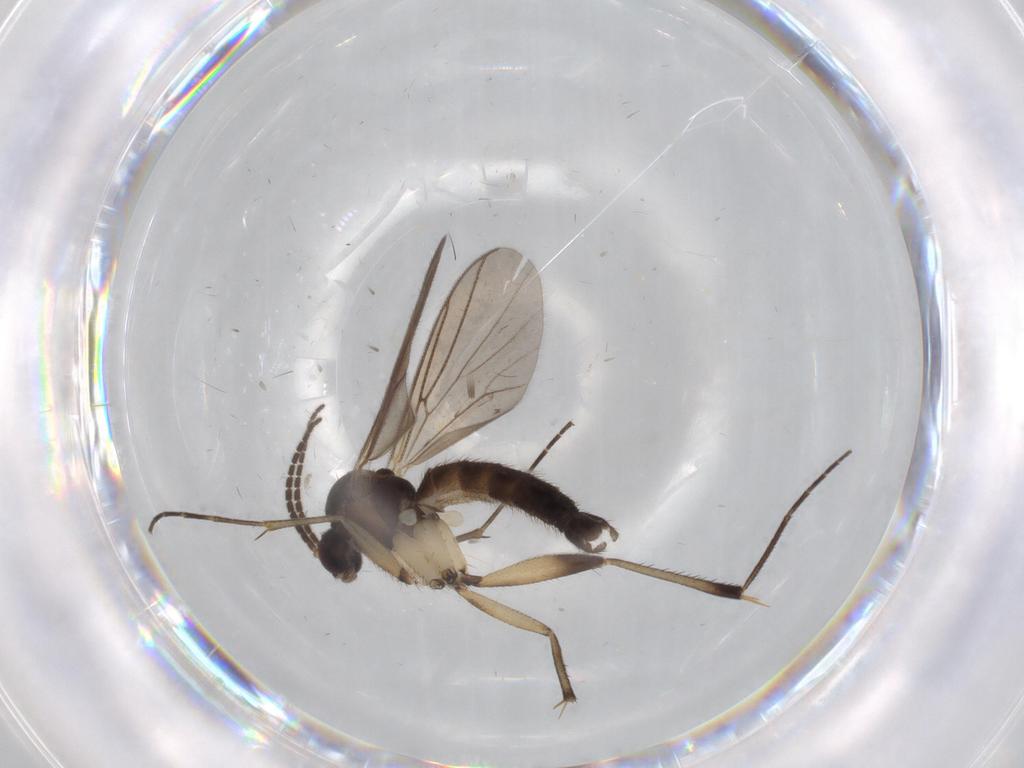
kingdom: Animalia
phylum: Arthropoda
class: Insecta
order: Diptera
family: Mycetophilidae
